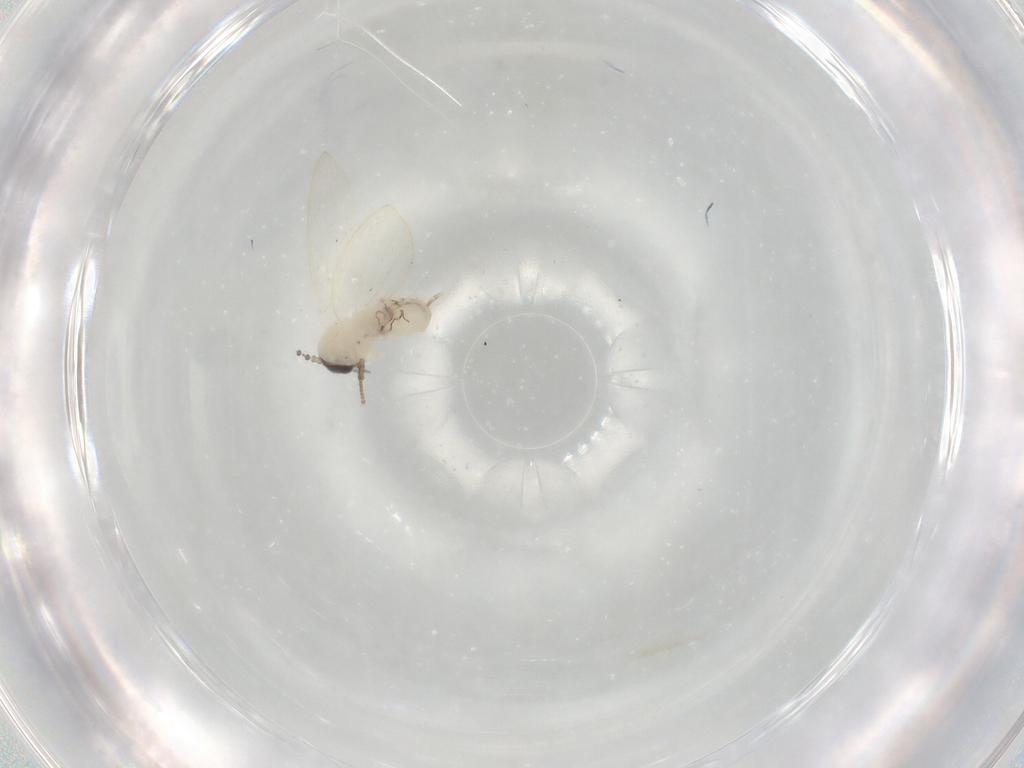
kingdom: Animalia
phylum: Arthropoda
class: Insecta
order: Diptera
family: Psychodidae
